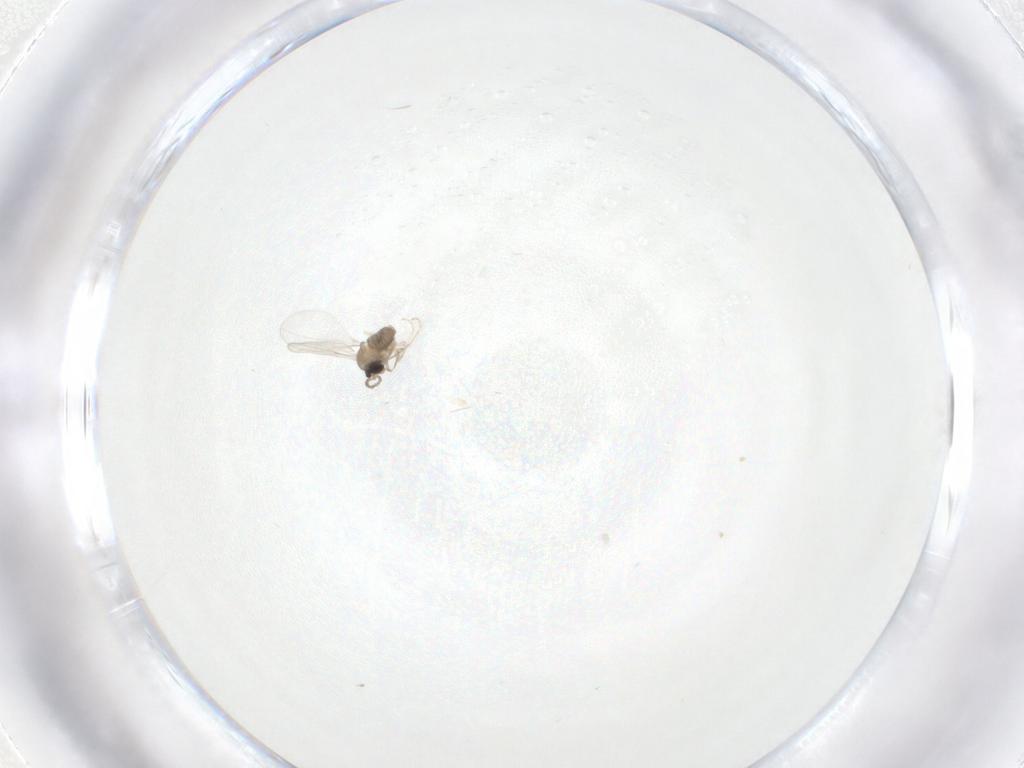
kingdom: Animalia
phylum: Arthropoda
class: Insecta
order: Diptera
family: Cecidomyiidae
